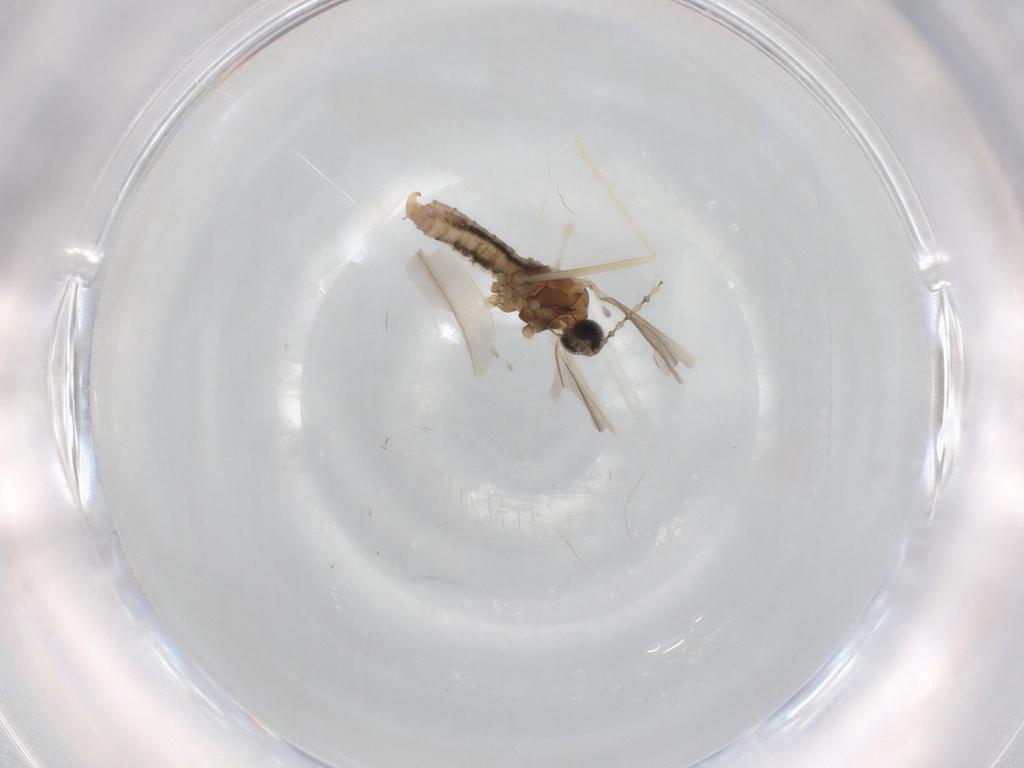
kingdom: Animalia
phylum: Arthropoda
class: Insecta
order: Diptera
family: Cecidomyiidae
